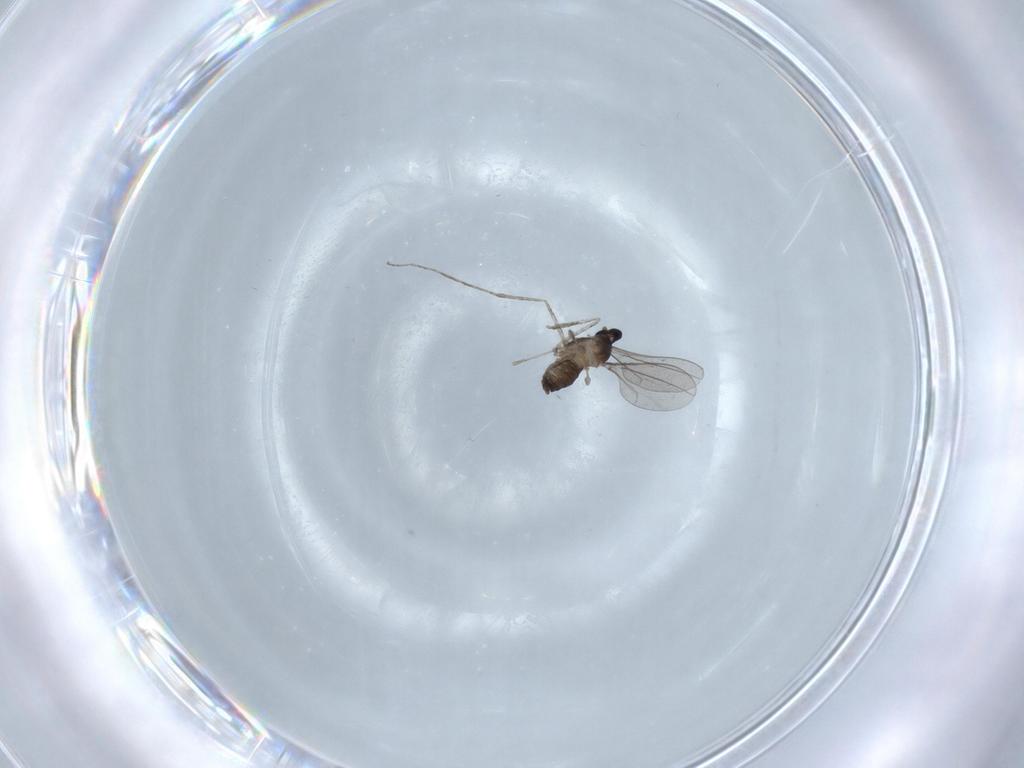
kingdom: Animalia
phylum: Arthropoda
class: Insecta
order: Diptera
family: Cecidomyiidae
